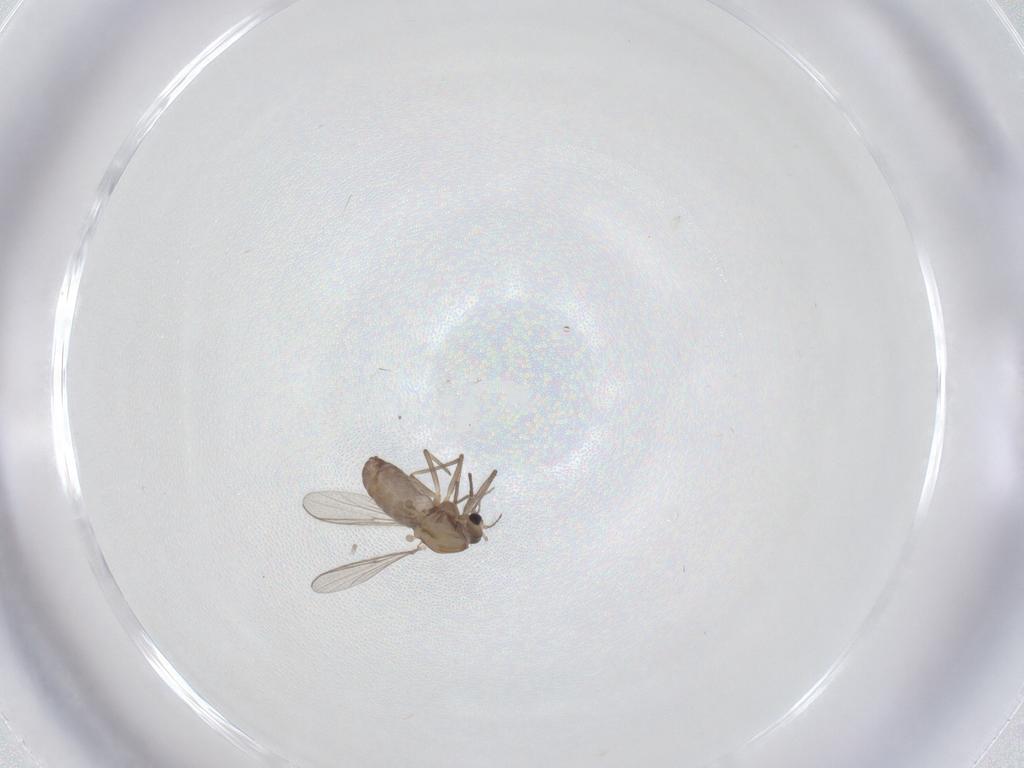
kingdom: Animalia
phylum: Arthropoda
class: Insecta
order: Diptera
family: Chironomidae
